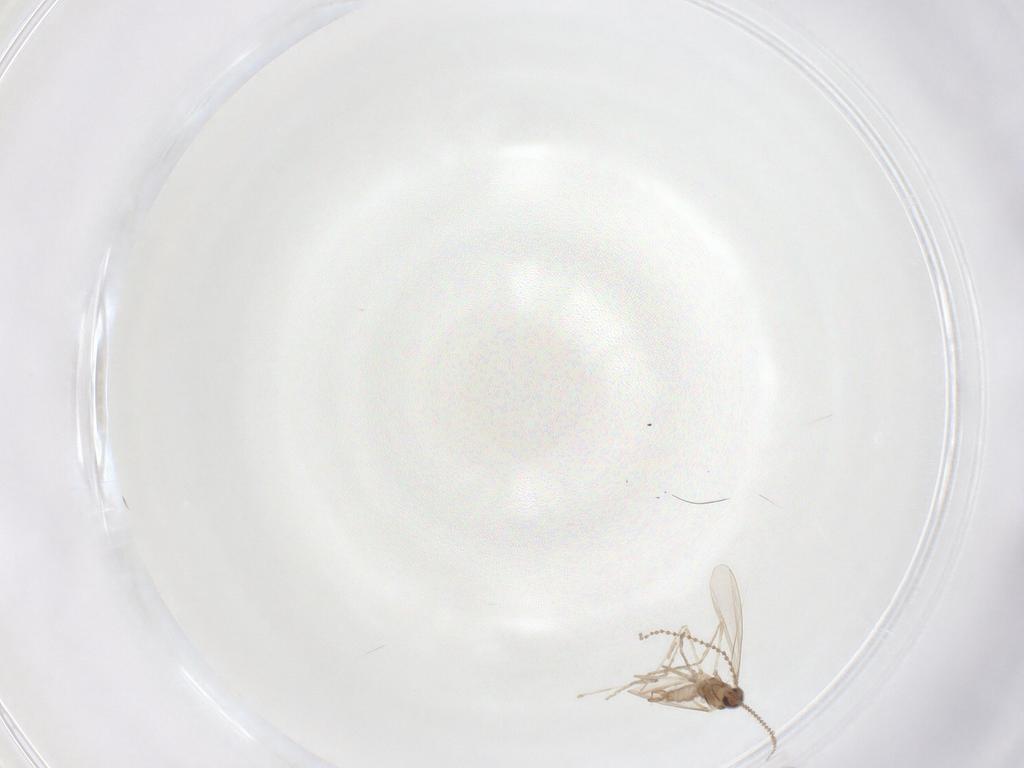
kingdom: Animalia
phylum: Arthropoda
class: Insecta
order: Diptera
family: Cecidomyiidae
